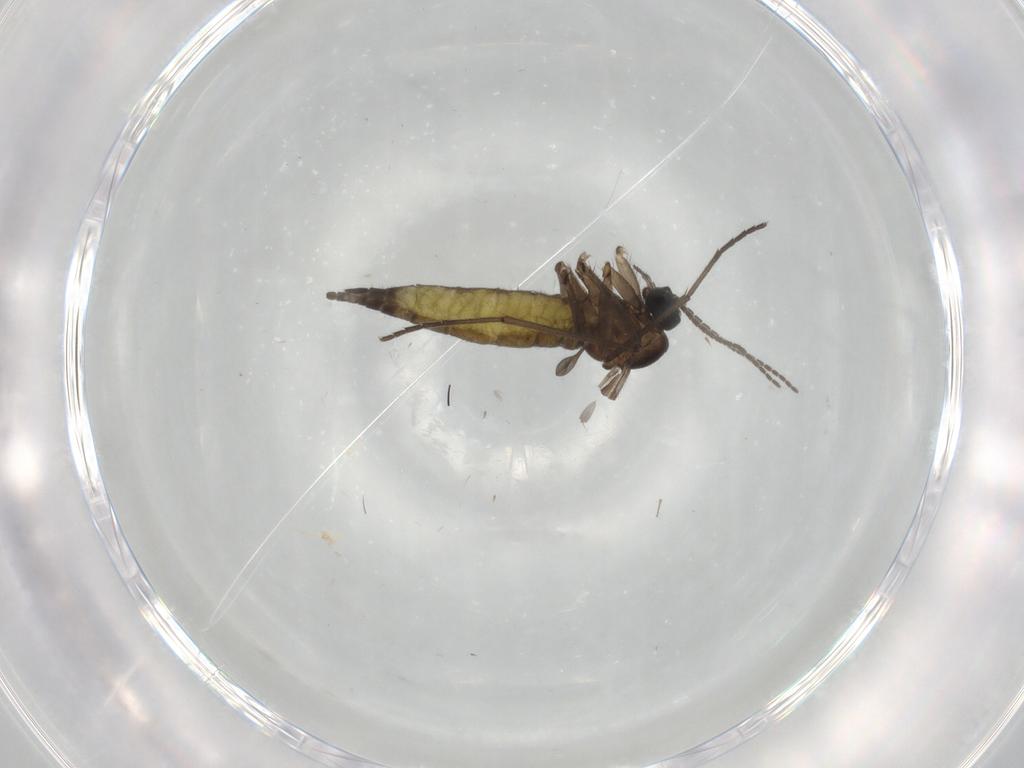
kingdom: Animalia
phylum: Arthropoda
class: Insecta
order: Diptera
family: Sciaridae
